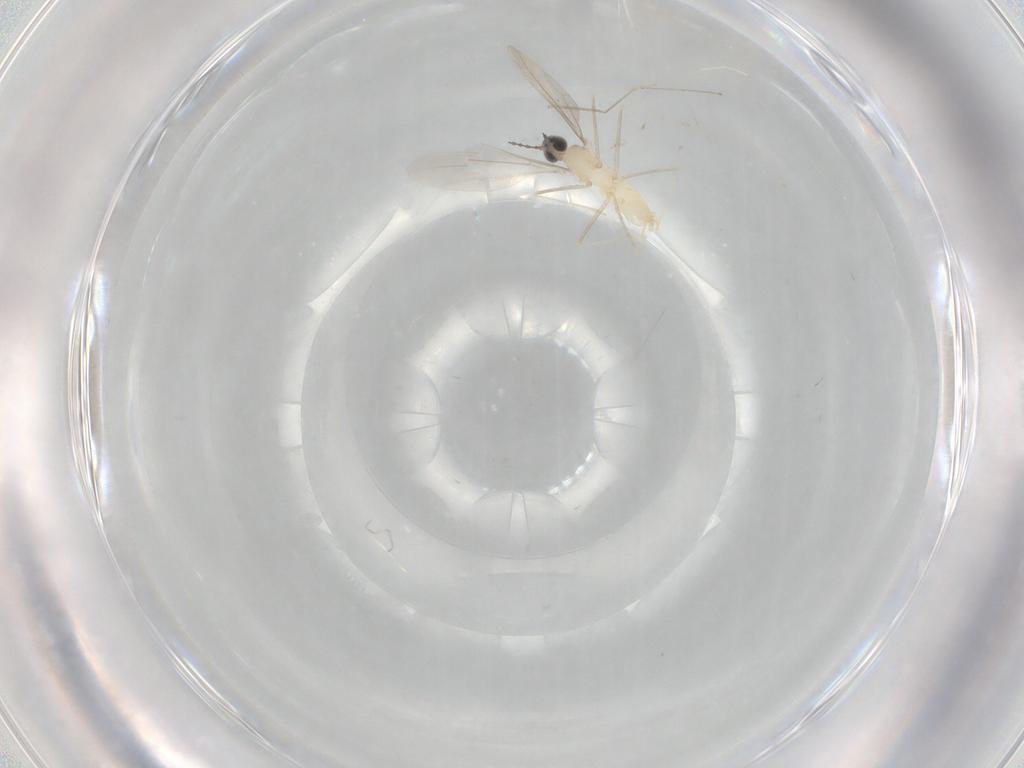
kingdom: Animalia
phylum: Arthropoda
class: Insecta
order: Diptera
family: Cecidomyiidae
